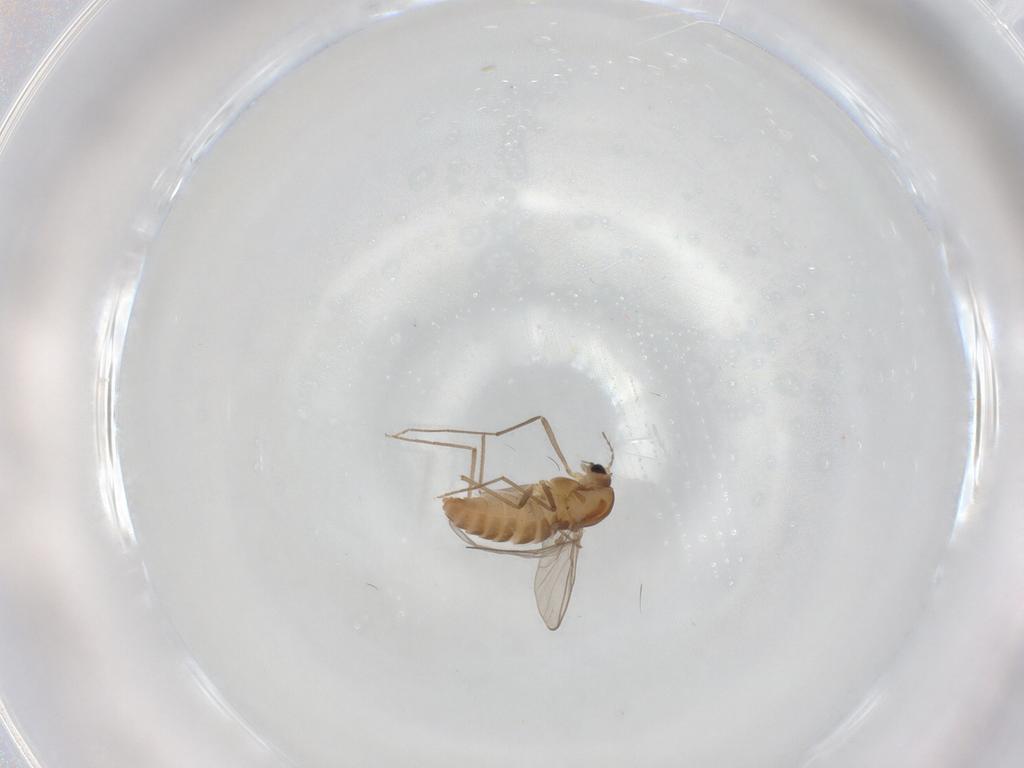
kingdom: Animalia
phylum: Arthropoda
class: Insecta
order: Diptera
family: Chironomidae
